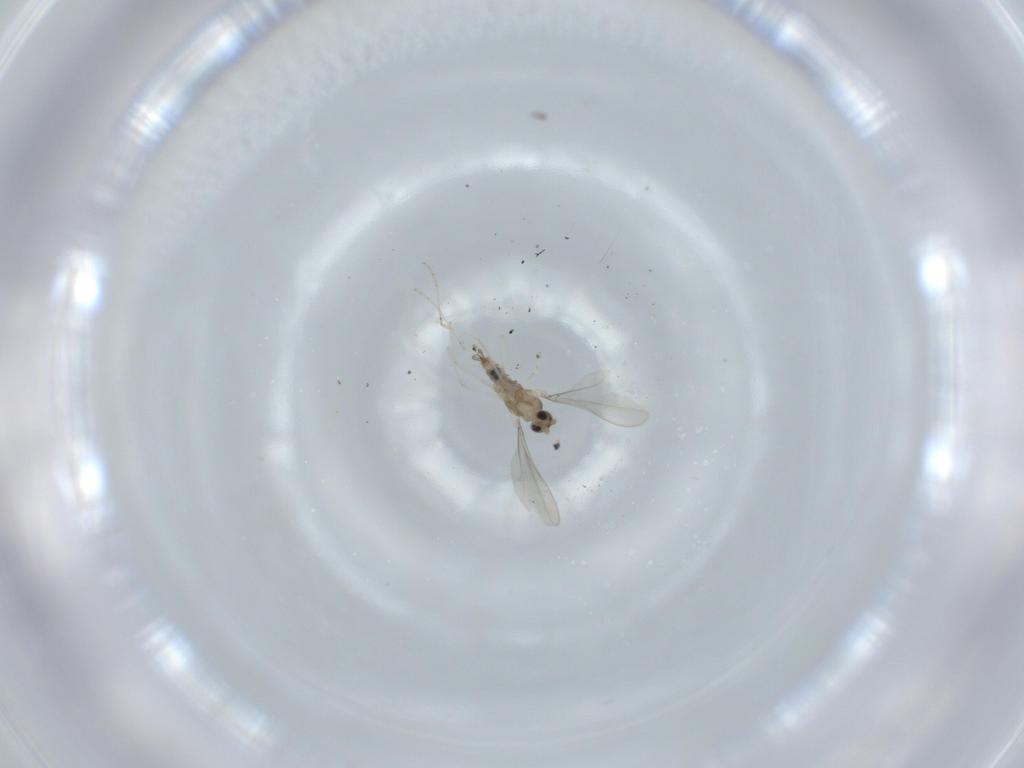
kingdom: Animalia
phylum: Arthropoda
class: Insecta
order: Diptera
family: Cecidomyiidae
